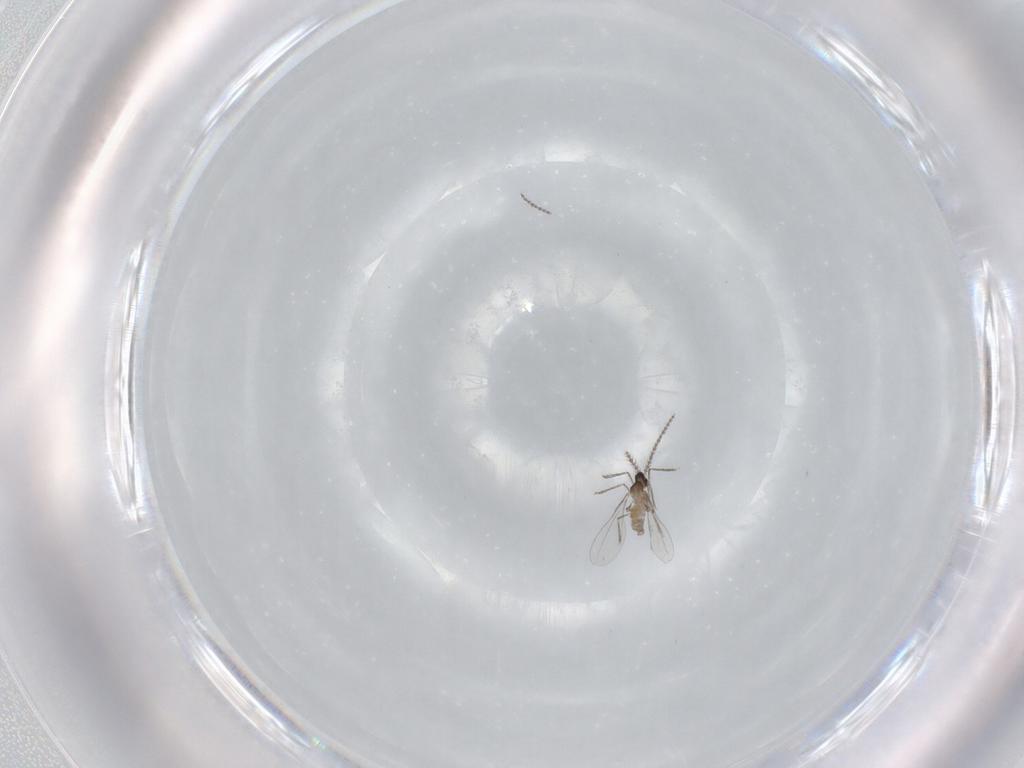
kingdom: Animalia
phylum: Arthropoda
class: Insecta
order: Diptera
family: Cecidomyiidae
